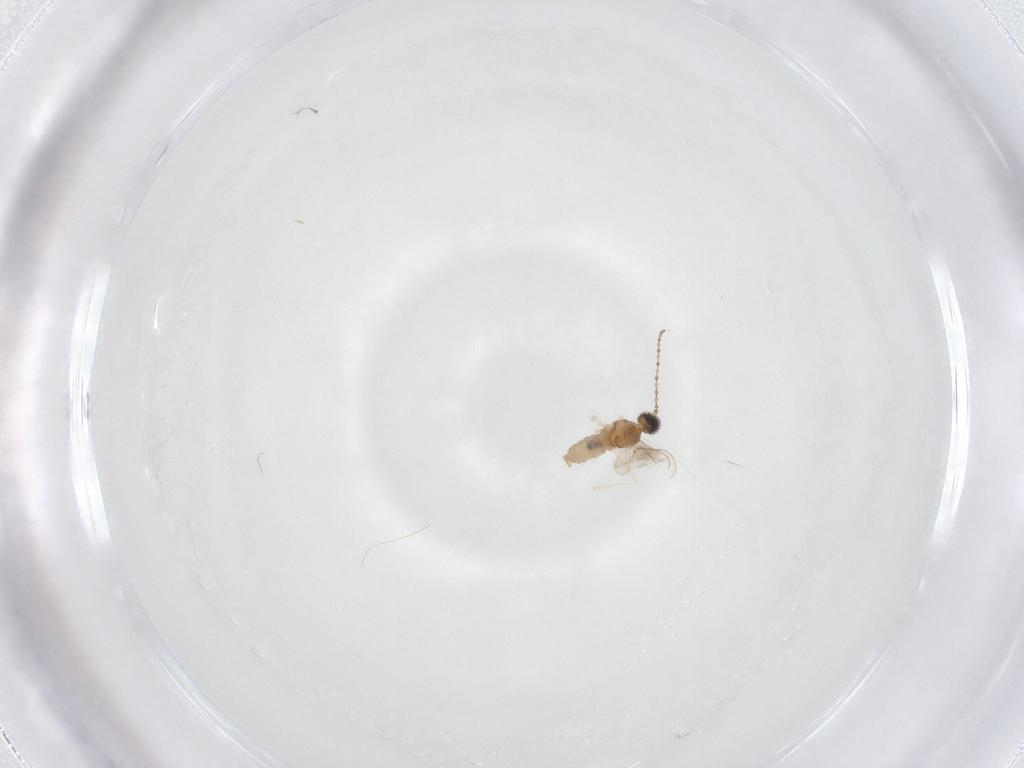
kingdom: Animalia
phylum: Arthropoda
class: Insecta
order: Diptera
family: Cecidomyiidae
